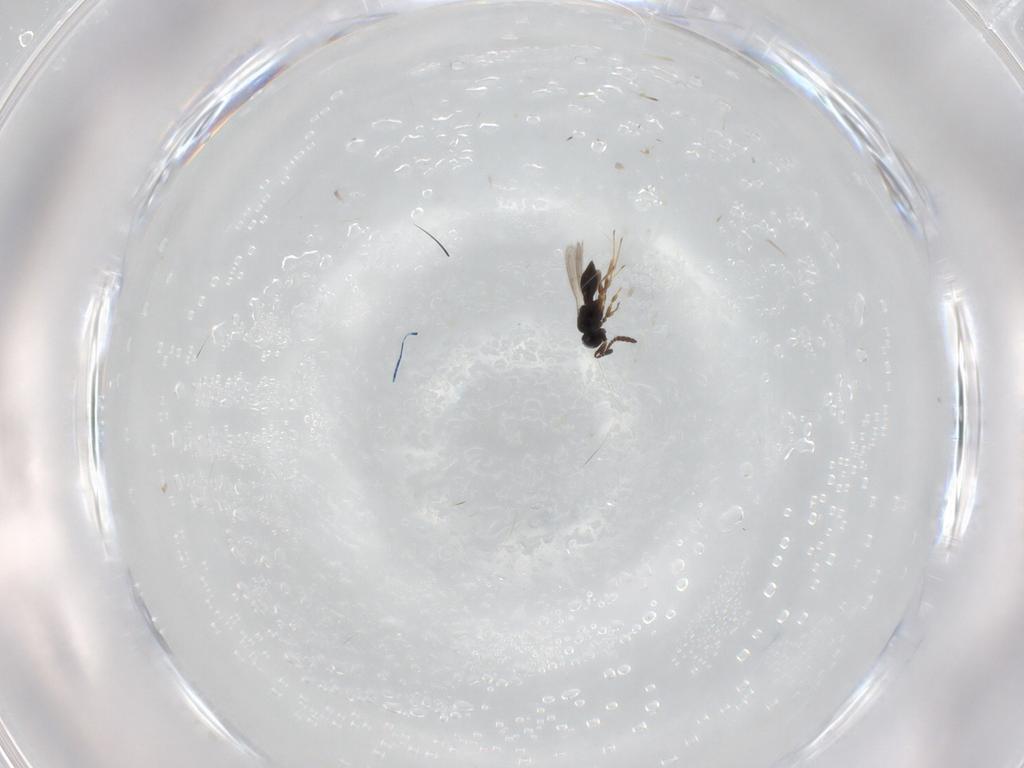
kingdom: Animalia
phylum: Arthropoda
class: Insecta
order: Hymenoptera
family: Scelionidae
